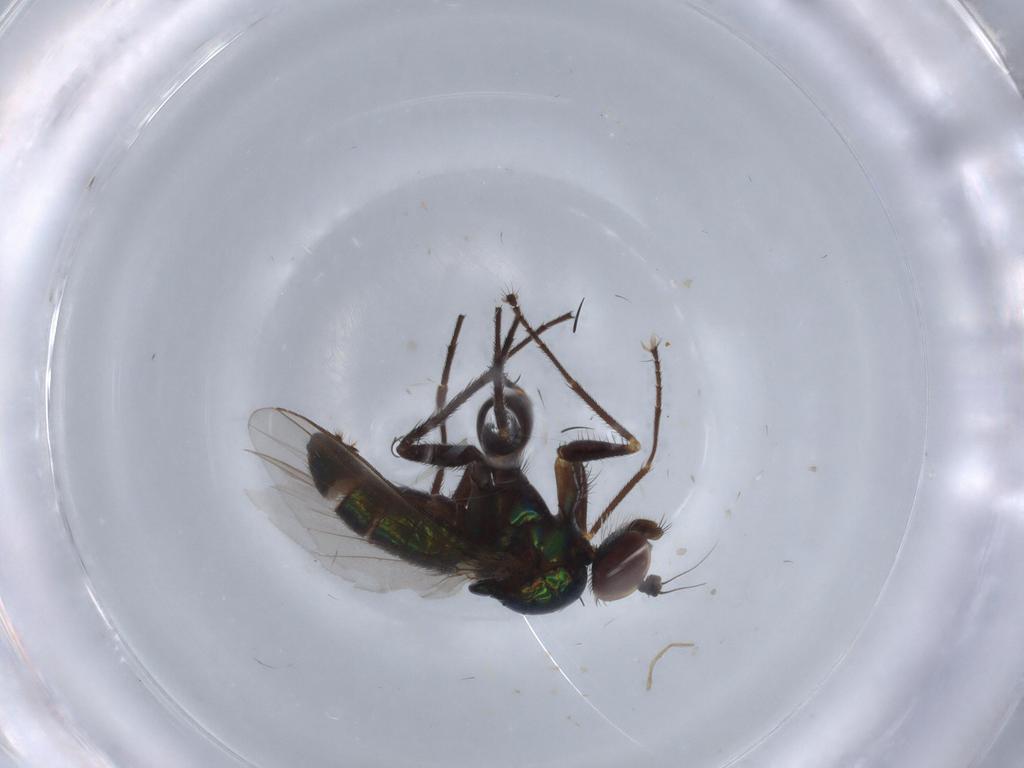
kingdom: Animalia
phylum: Arthropoda
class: Insecta
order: Diptera
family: Dolichopodidae
